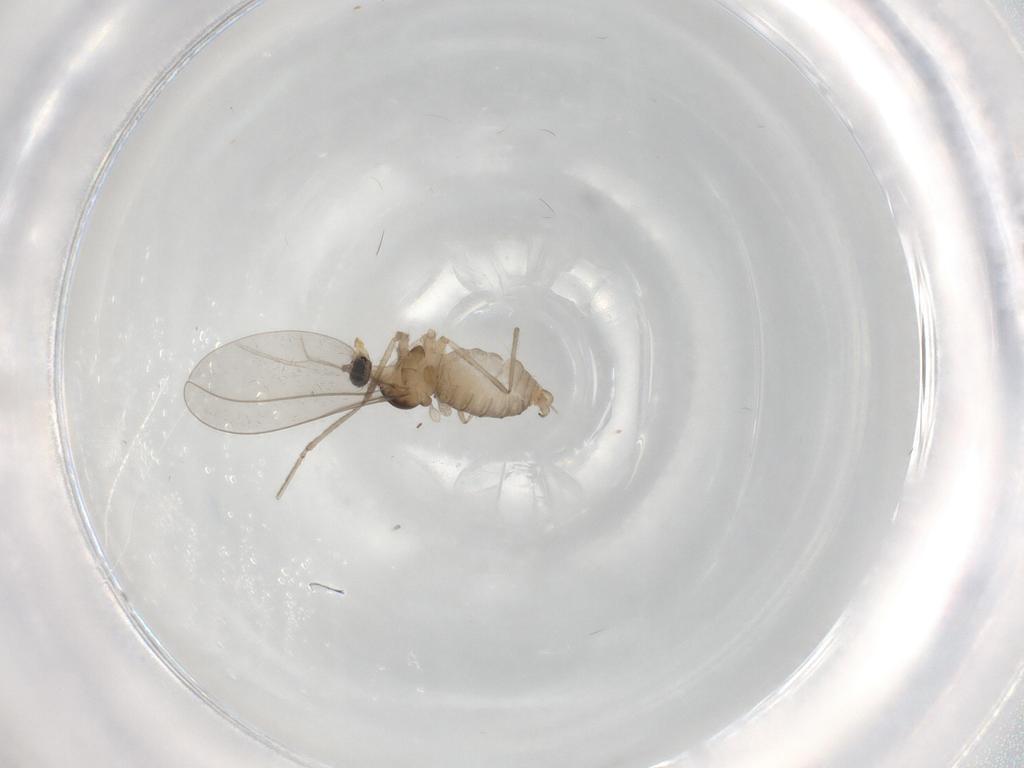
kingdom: Animalia
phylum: Arthropoda
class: Insecta
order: Diptera
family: Cecidomyiidae
